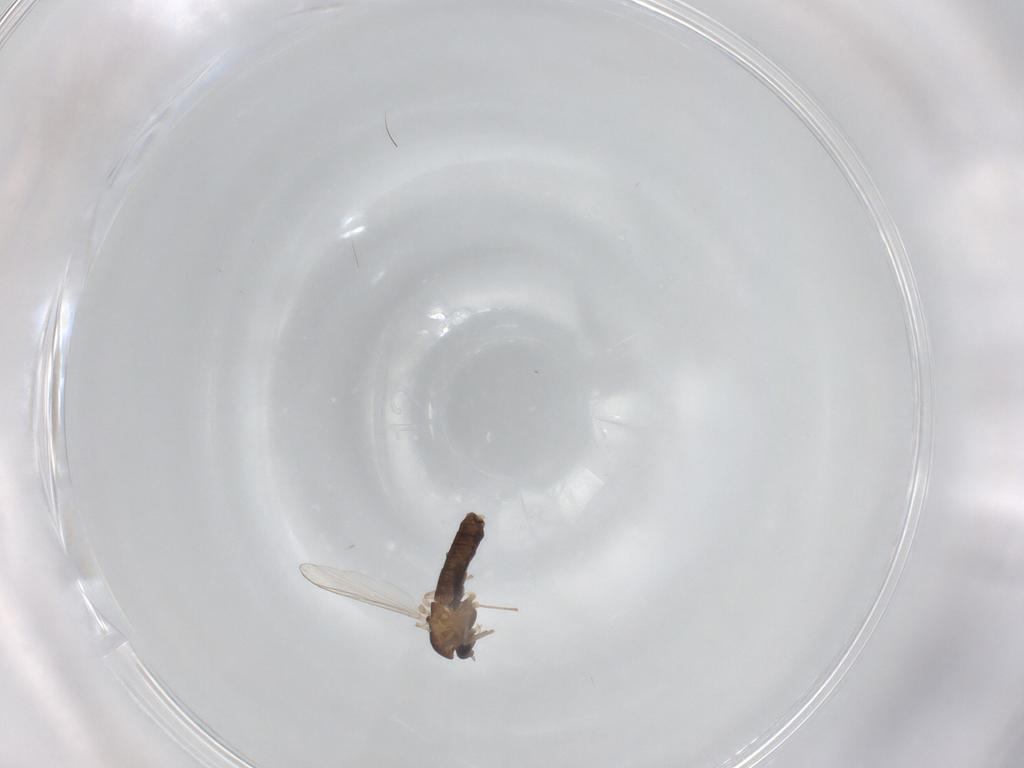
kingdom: Animalia
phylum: Arthropoda
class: Insecta
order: Diptera
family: Chironomidae
